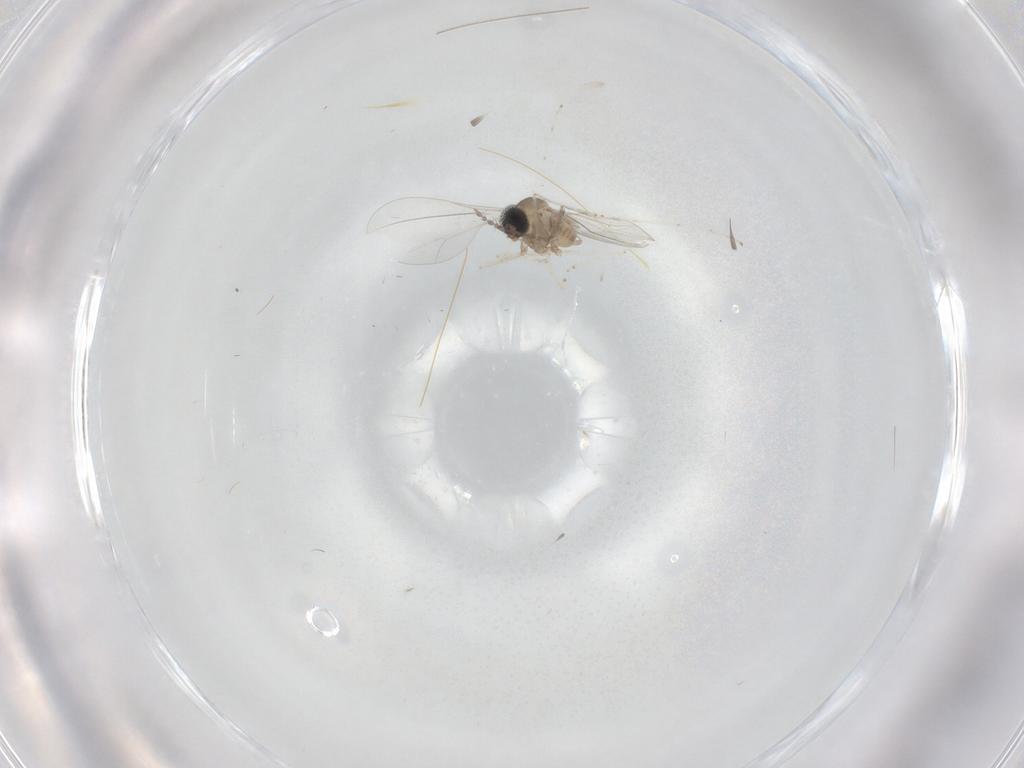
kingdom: Animalia
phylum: Arthropoda
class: Insecta
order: Diptera
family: Cecidomyiidae
